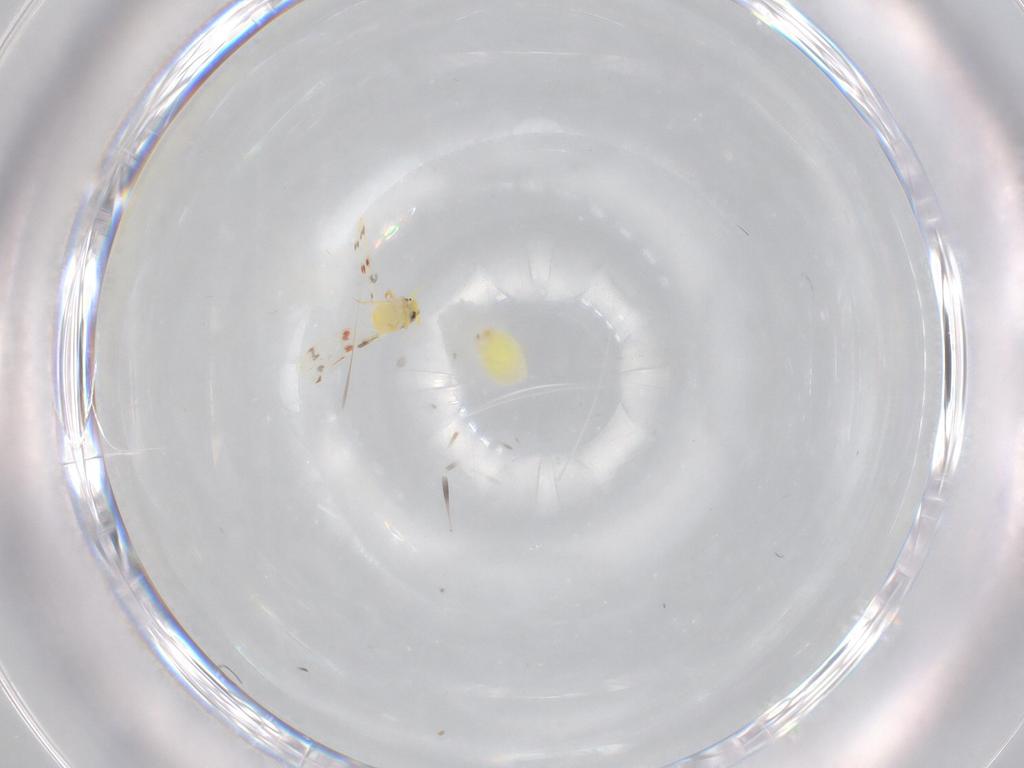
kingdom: Animalia
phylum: Arthropoda
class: Insecta
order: Hemiptera
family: Aleyrodidae
